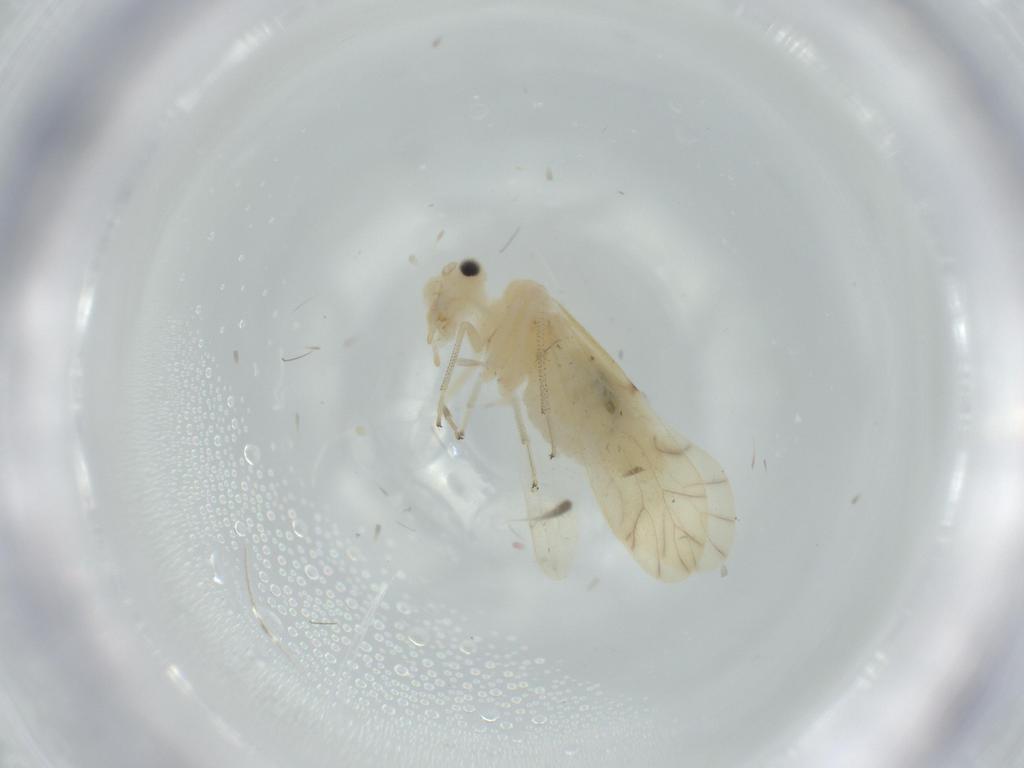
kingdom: Animalia
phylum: Arthropoda
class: Insecta
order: Psocodea
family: Caeciliusidae
